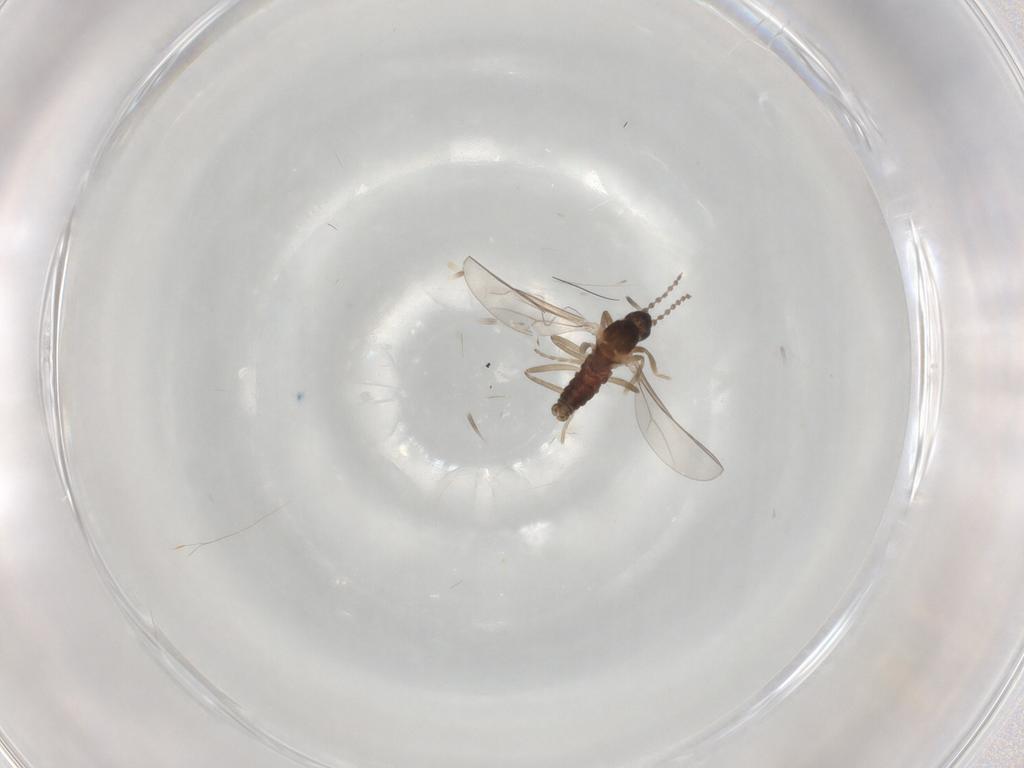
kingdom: Animalia
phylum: Arthropoda
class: Insecta
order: Diptera
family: Cecidomyiidae
